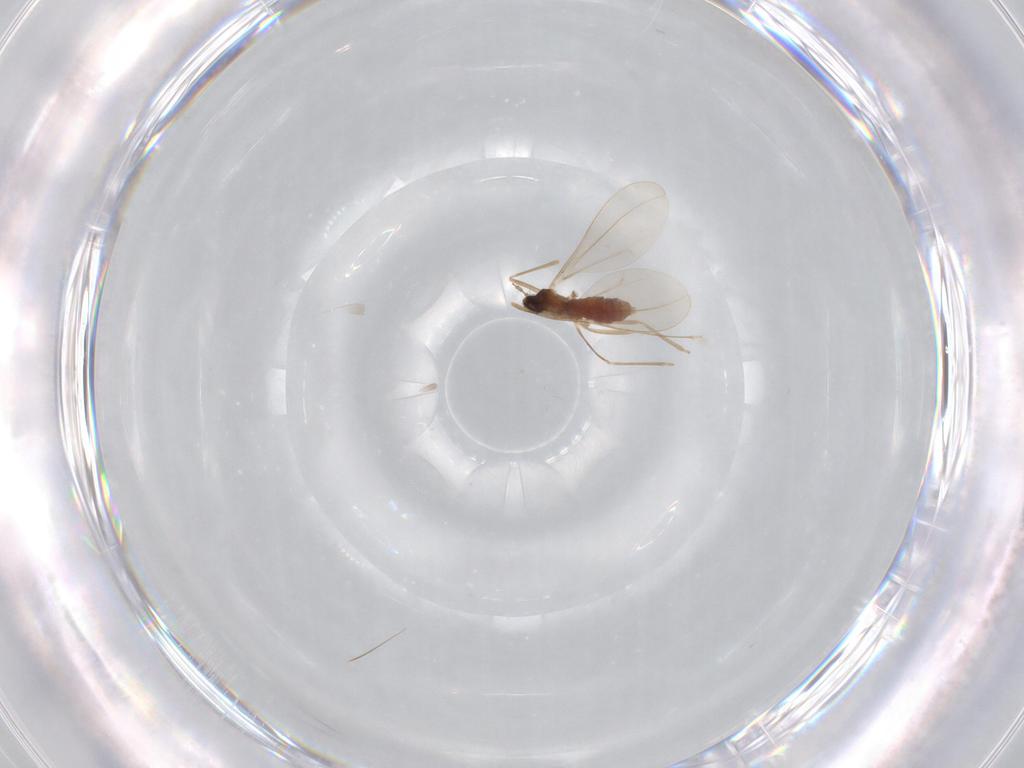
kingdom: Animalia
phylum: Arthropoda
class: Insecta
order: Diptera
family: Cecidomyiidae
